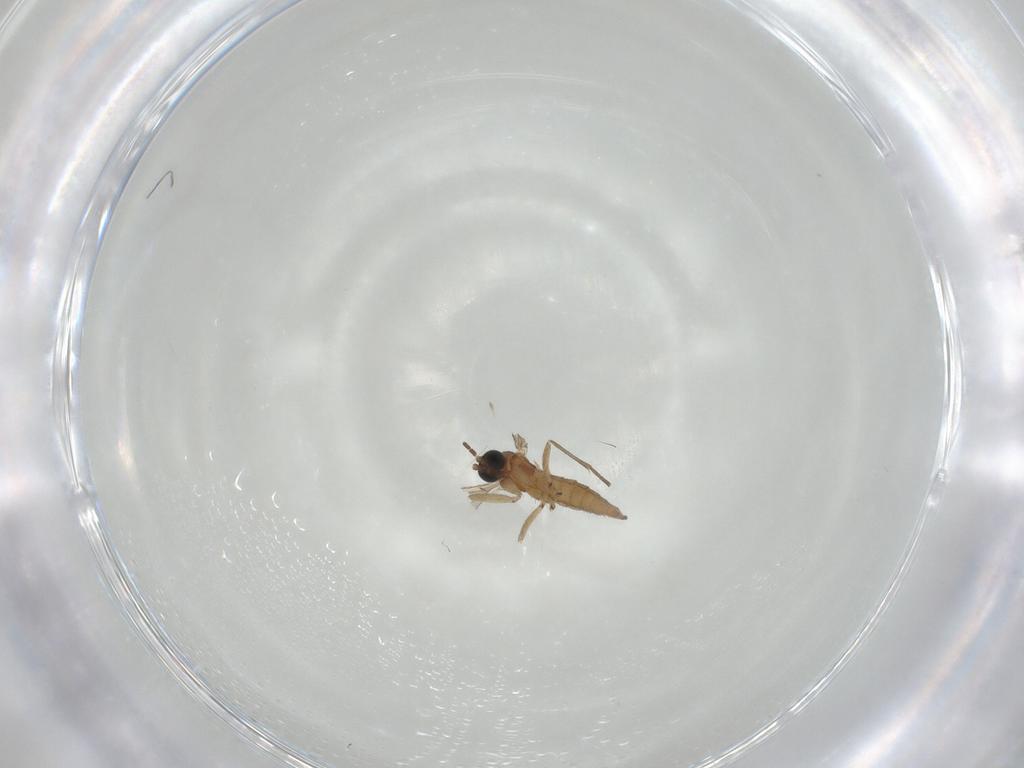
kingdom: Animalia
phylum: Arthropoda
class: Insecta
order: Diptera
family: Sciaridae
